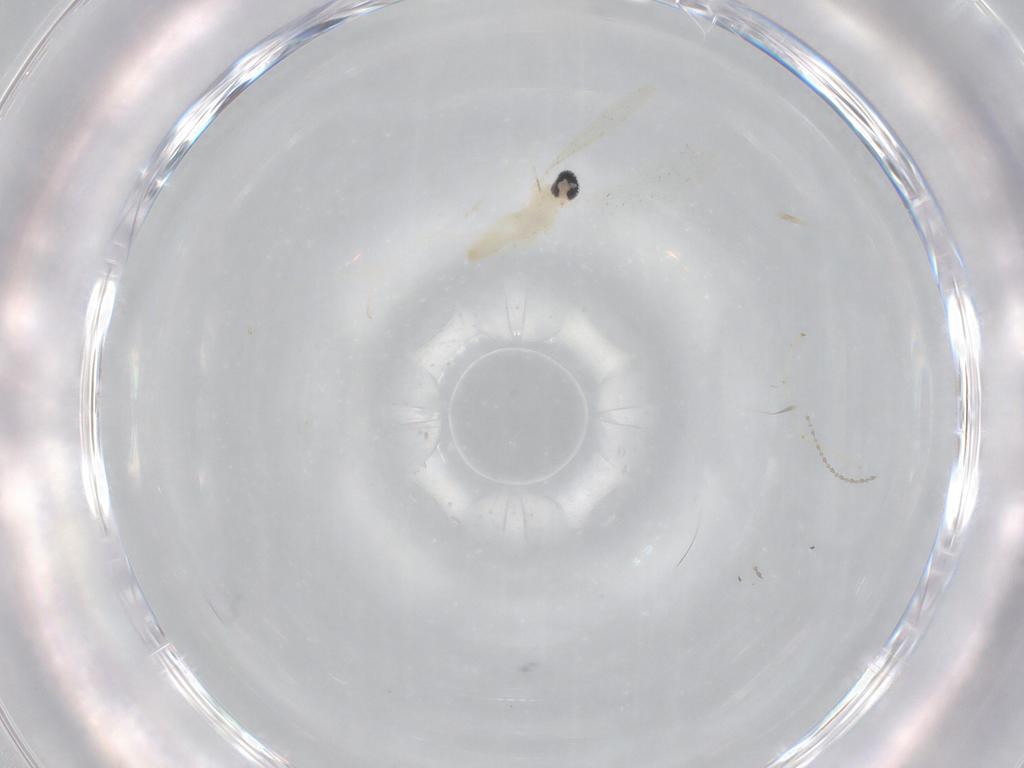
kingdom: Animalia
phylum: Arthropoda
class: Insecta
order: Diptera
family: Cecidomyiidae
